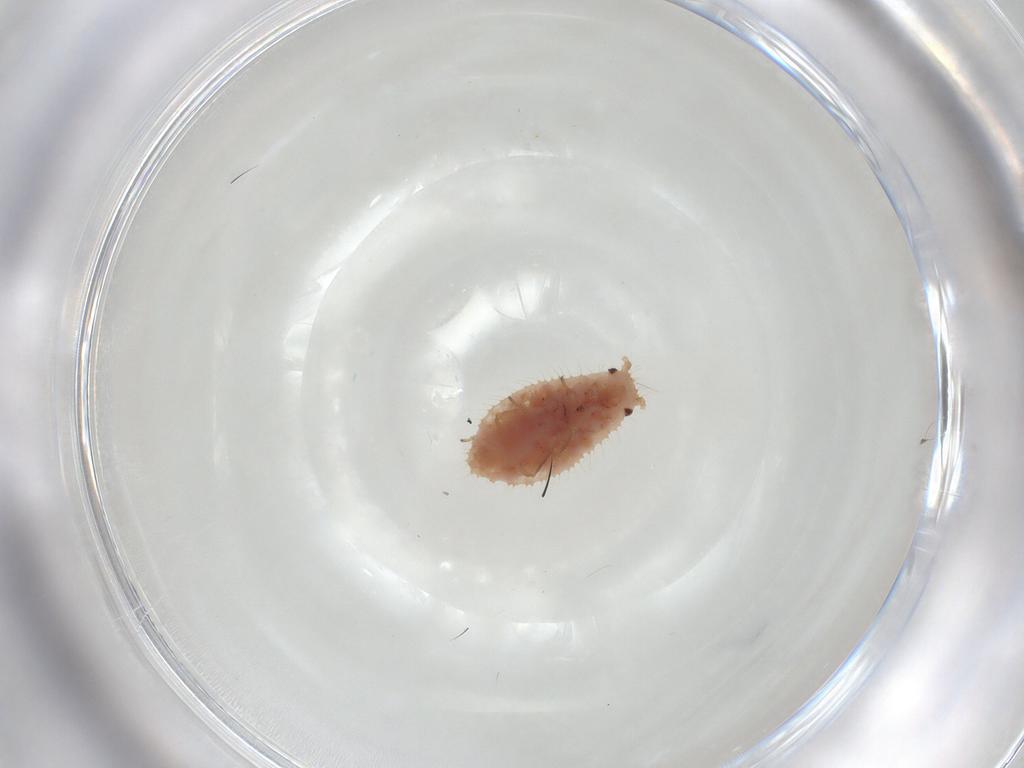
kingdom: Animalia
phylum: Arthropoda
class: Insecta
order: Hemiptera
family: Aphididae
